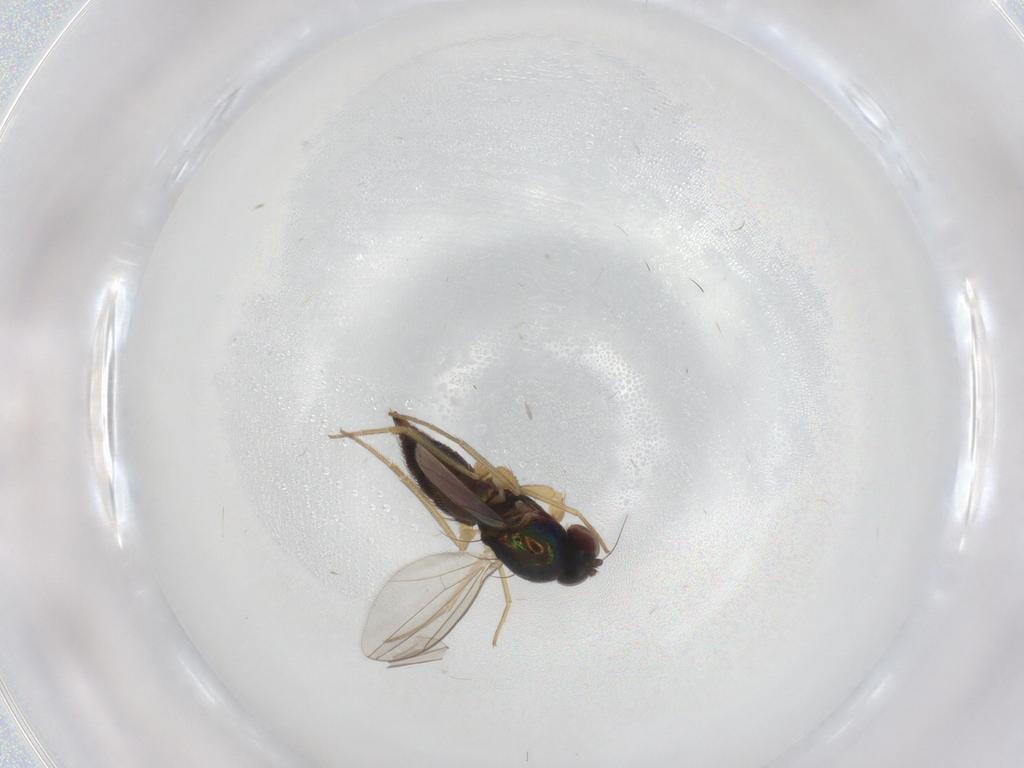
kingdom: Animalia
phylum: Arthropoda
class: Insecta
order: Diptera
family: Dolichopodidae
